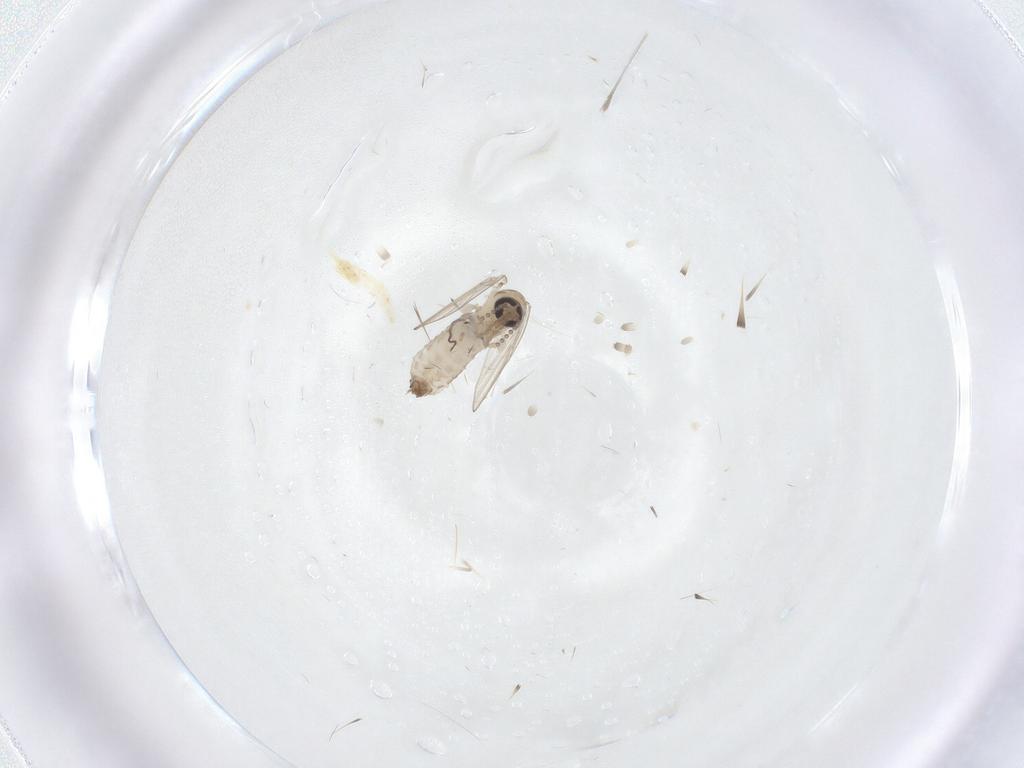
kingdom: Animalia
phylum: Arthropoda
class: Insecta
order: Diptera
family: Psychodidae
